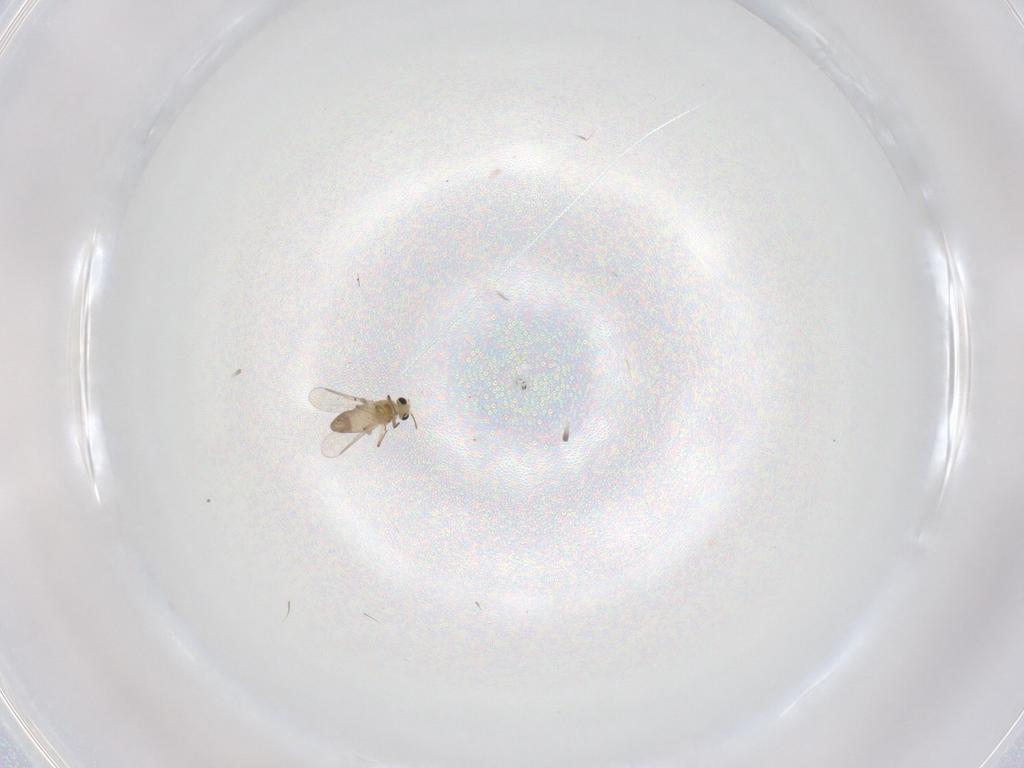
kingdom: Animalia
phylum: Arthropoda
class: Insecta
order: Diptera
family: Chironomidae
